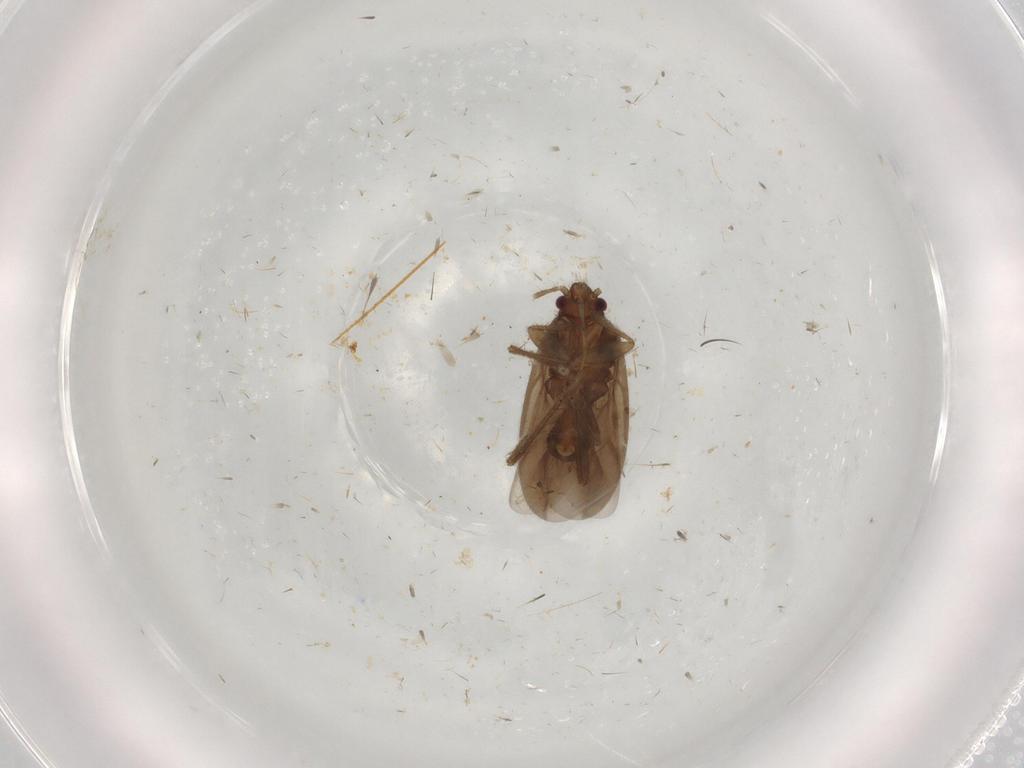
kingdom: Animalia
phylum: Arthropoda
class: Insecta
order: Hemiptera
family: Ceratocombidae
